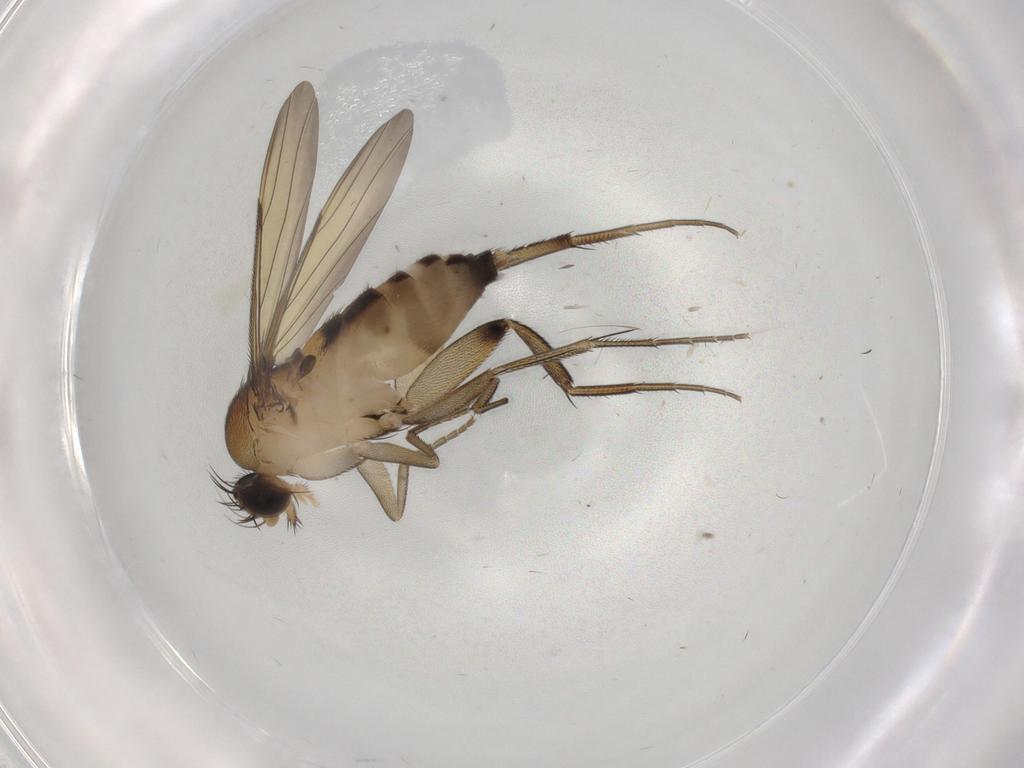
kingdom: Animalia
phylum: Arthropoda
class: Insecta
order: Diptera
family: Phoridae
